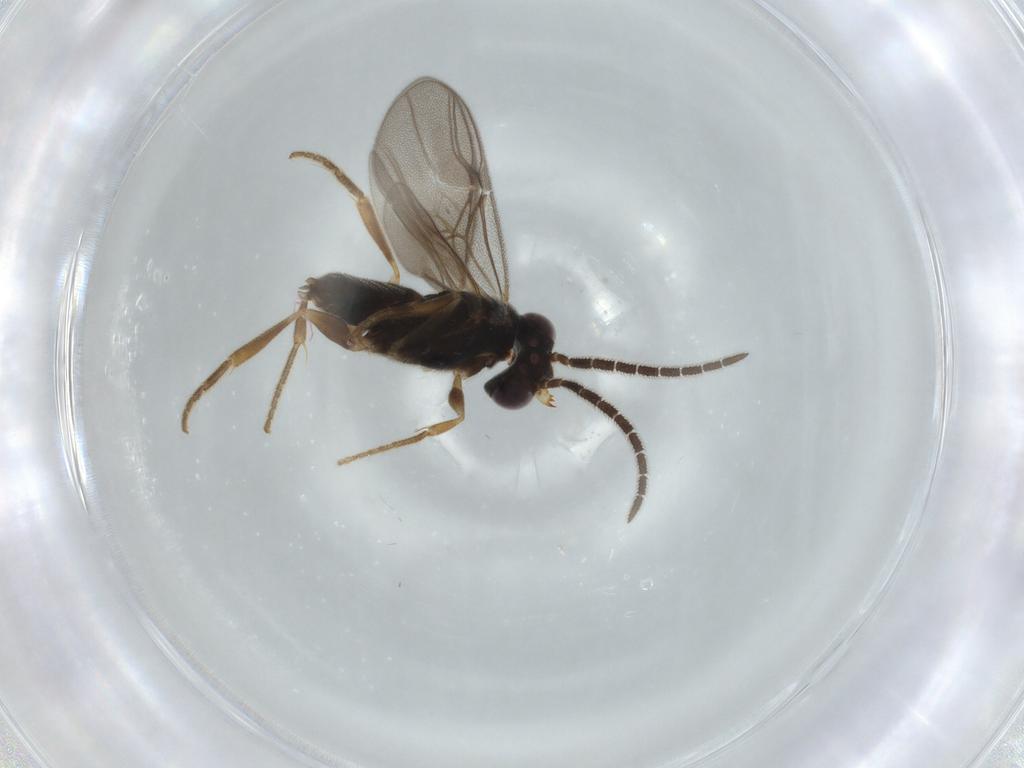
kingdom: Animalia
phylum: Arthropoda
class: Insecta
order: Hymenoptera
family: Dryinidae
